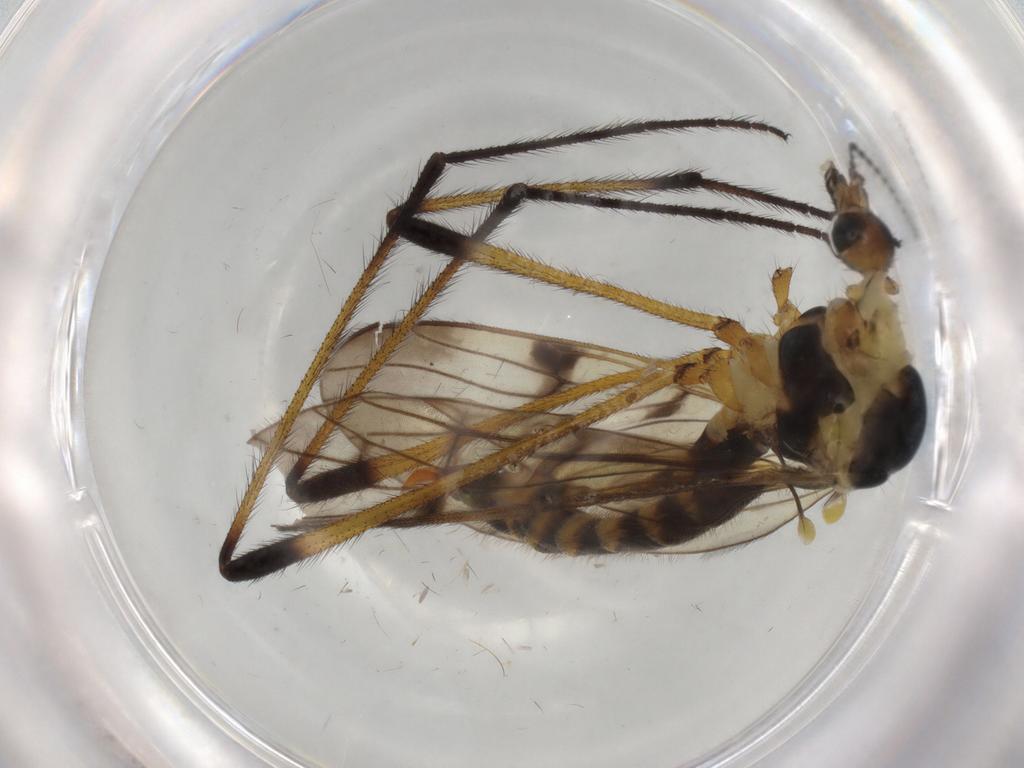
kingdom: Animalia
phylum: Arthropoda
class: Insecta
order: Diptera
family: Limoniidae
